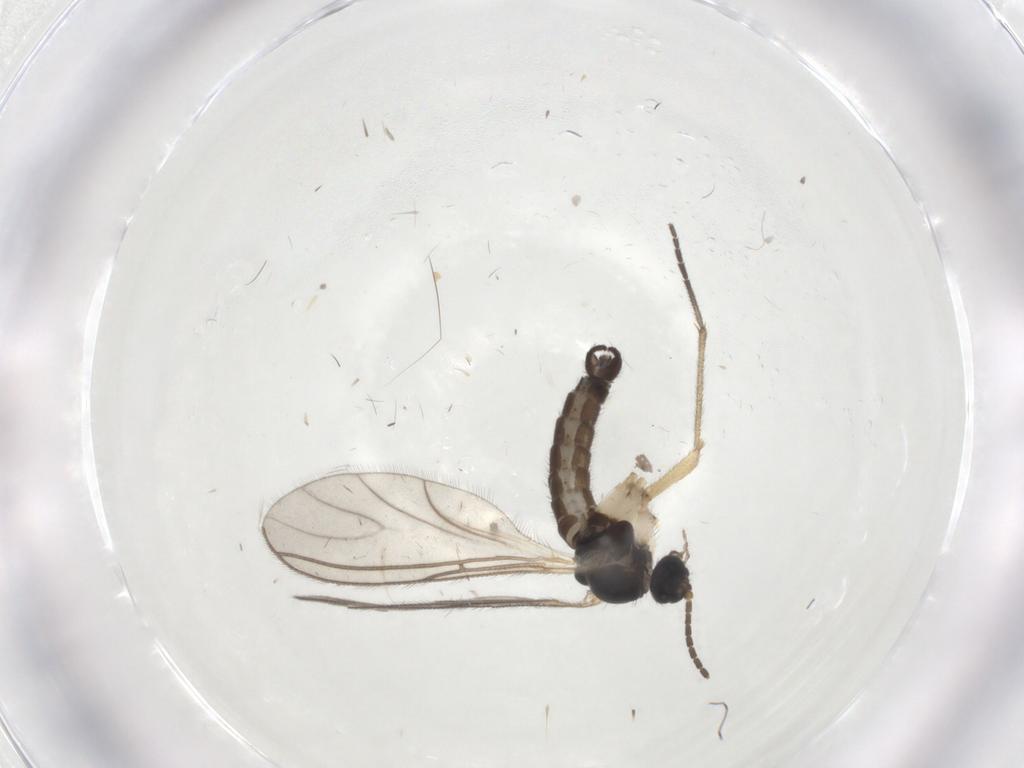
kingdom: Animalia
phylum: Arthropoda
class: Insecta
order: Diptera
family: Sciaridae
